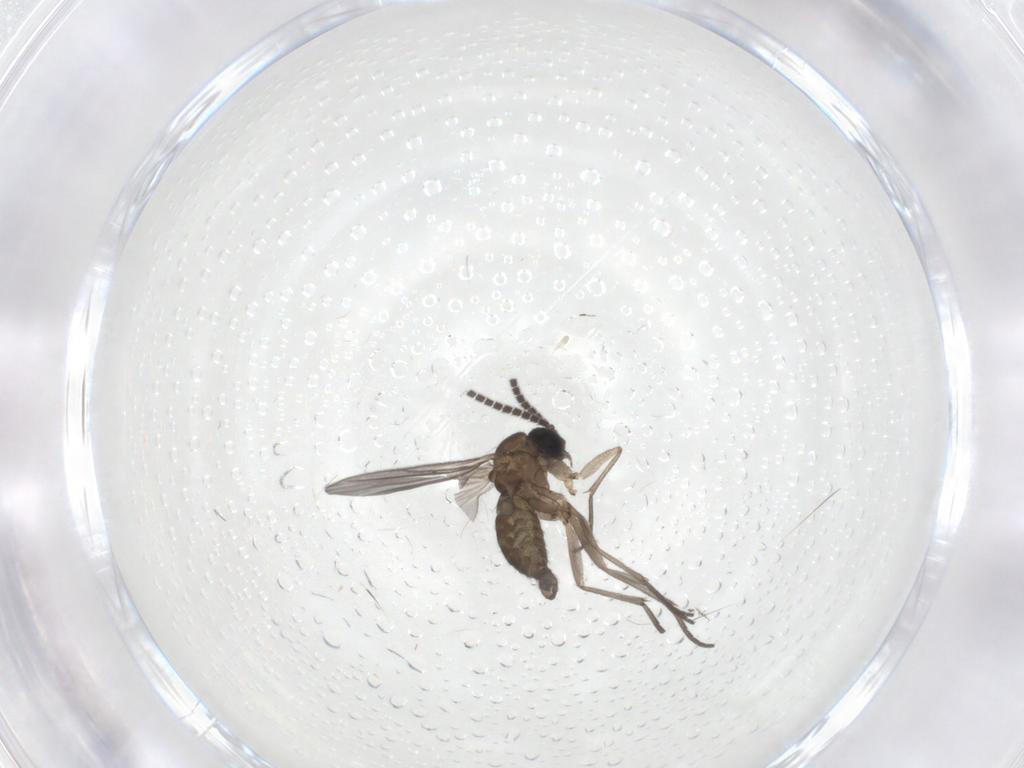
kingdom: Animalia
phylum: Arthropoda
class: Insecta
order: Diptera
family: Sciaridae
